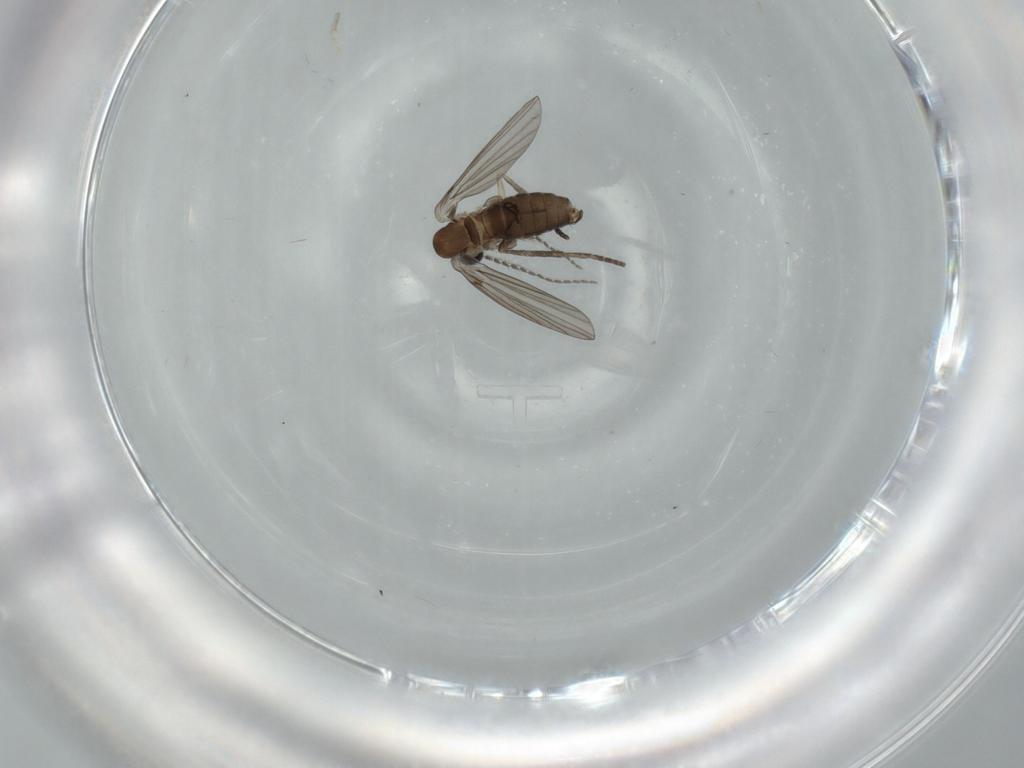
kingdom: Animalia
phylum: Arthropoda
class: Insecta
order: Diptera
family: Psychodidae
